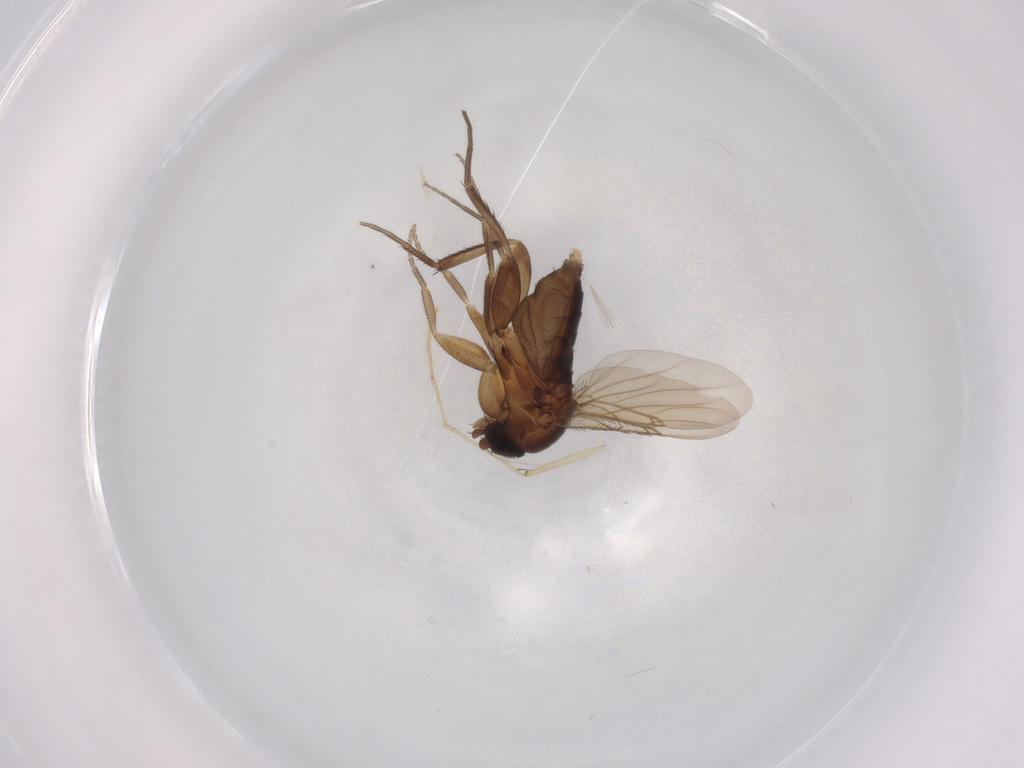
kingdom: Animalia
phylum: Arthropoda
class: Insecta
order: Diptera
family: Phoridae
